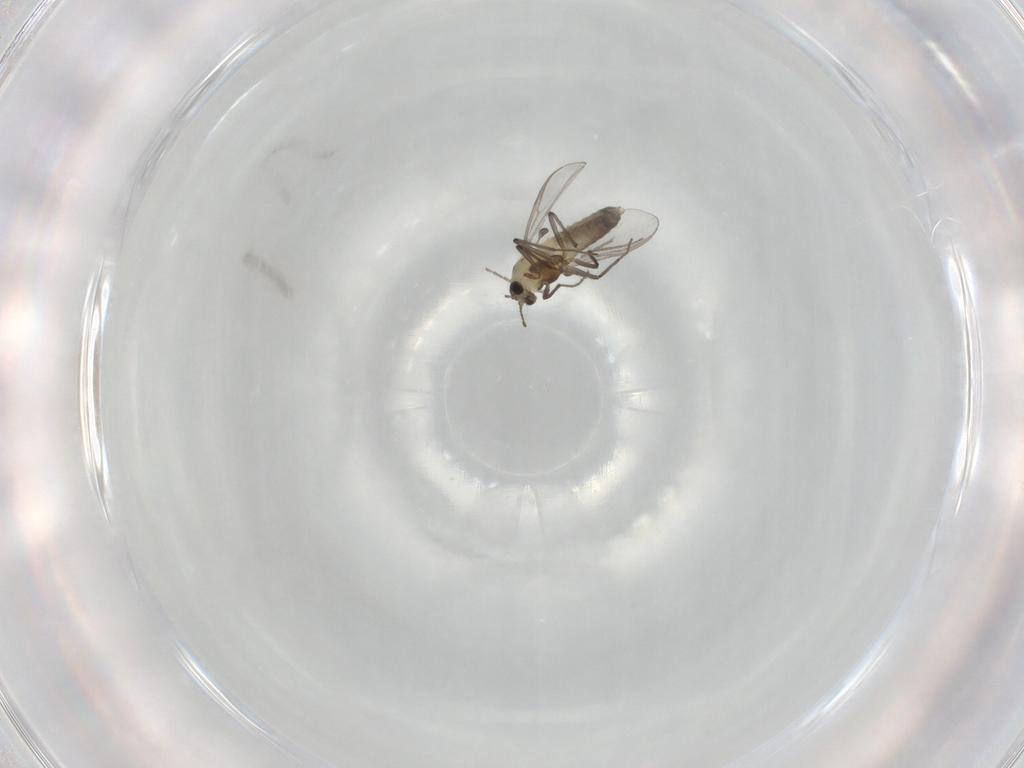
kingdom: Animalia
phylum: Arthropoda
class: Insecta
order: Diptera
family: Chironomidae
